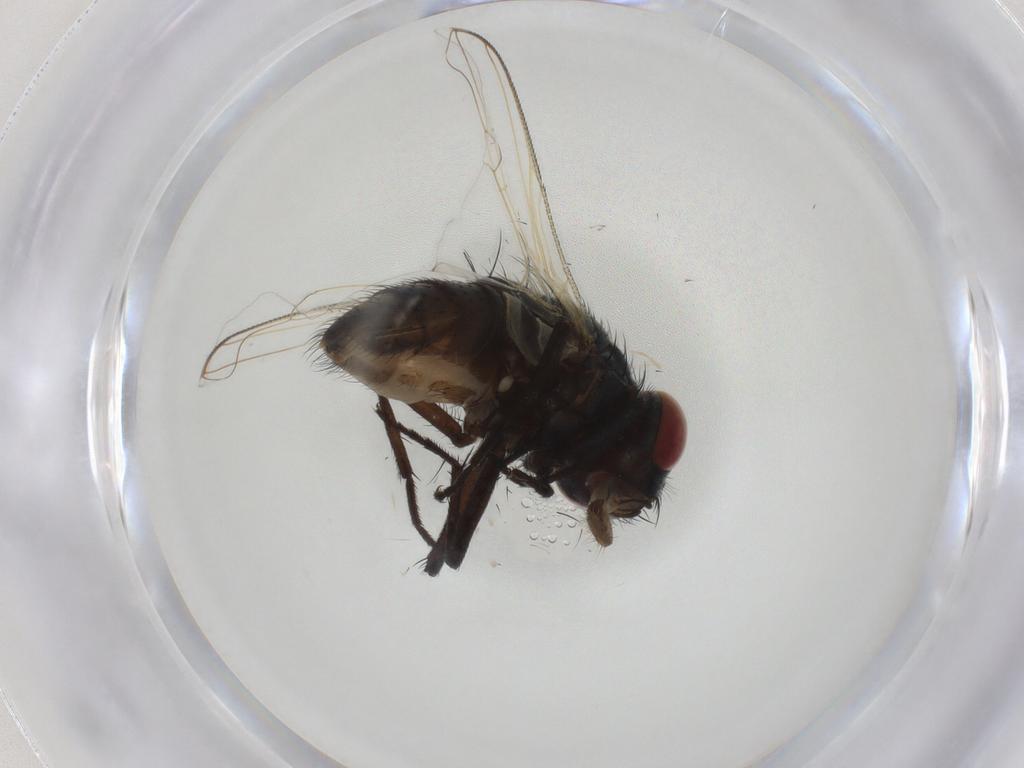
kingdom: Animalia
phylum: Arthropoda
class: Insecta
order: Diptera
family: Muscidae
